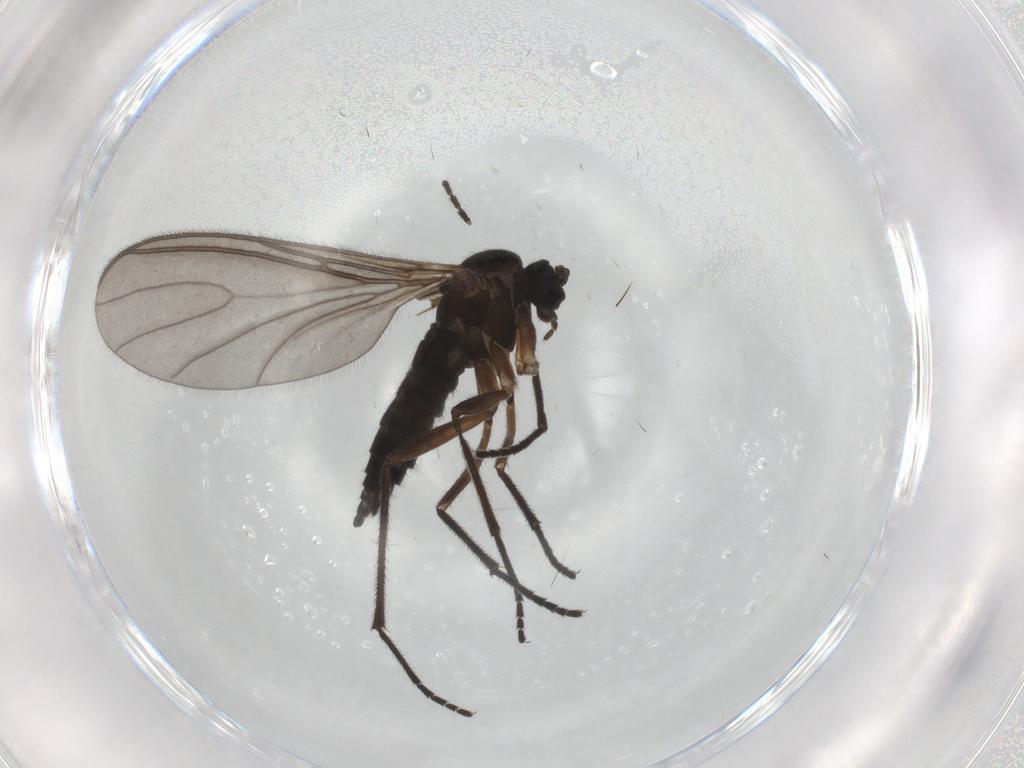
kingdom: Animalia
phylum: Arthropoda
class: Insecta
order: Diptera
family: Sciaridae
